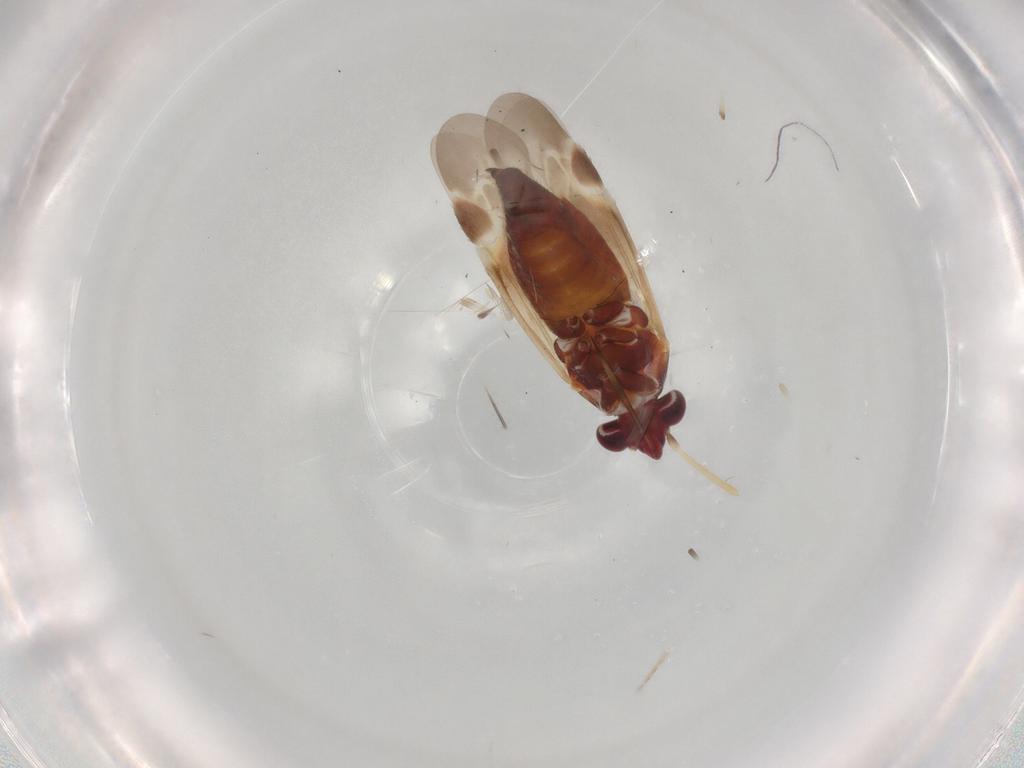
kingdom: Animalia
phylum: Arthropoda
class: Insecta
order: Hemiptera
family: Miridae
